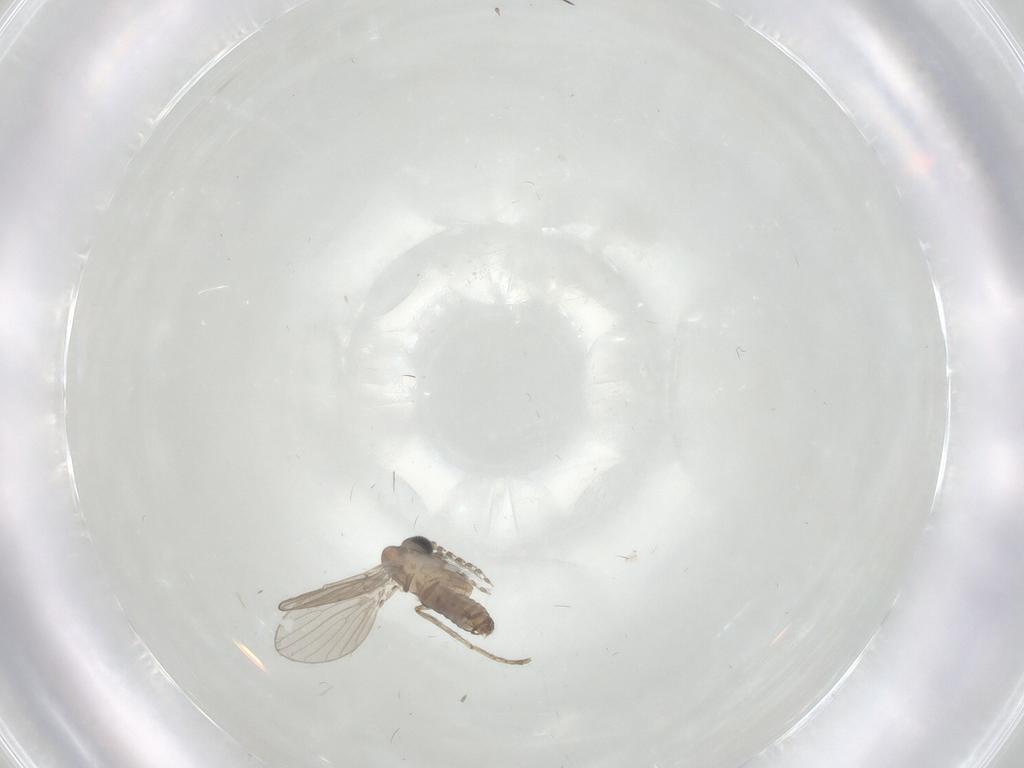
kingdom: Animalia
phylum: Arthropoda
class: Insecta
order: Diptera
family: Psychodidae
